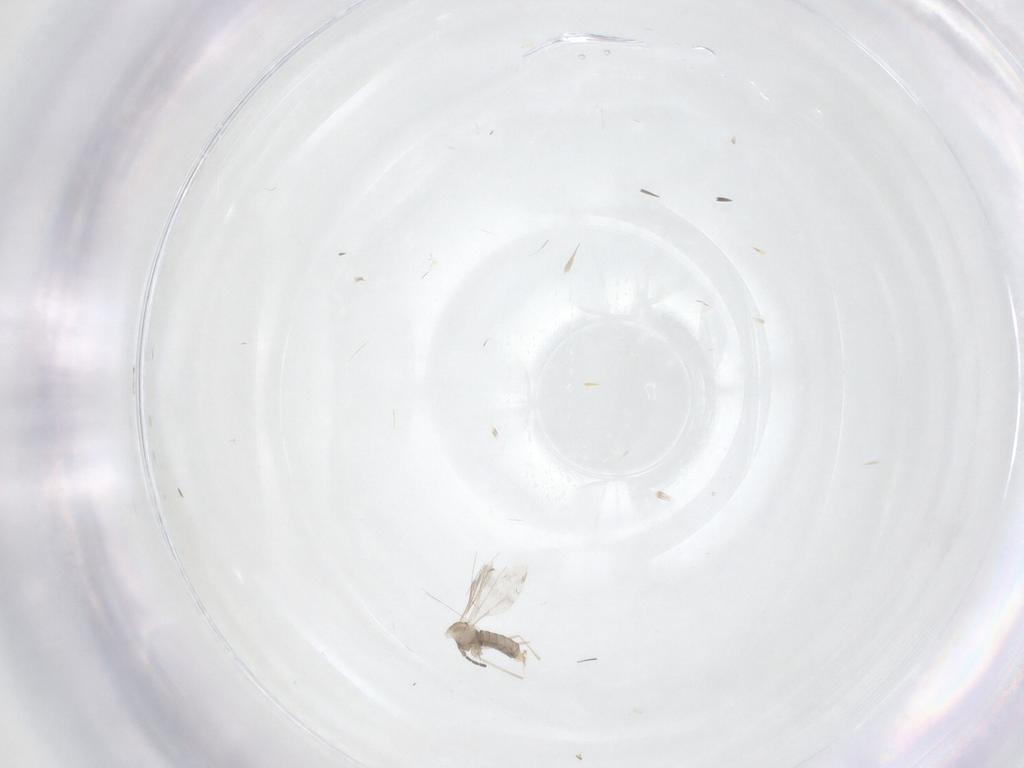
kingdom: Animalia
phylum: Arthropoda
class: Insecta
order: Diptera
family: Cecidomyiidae
